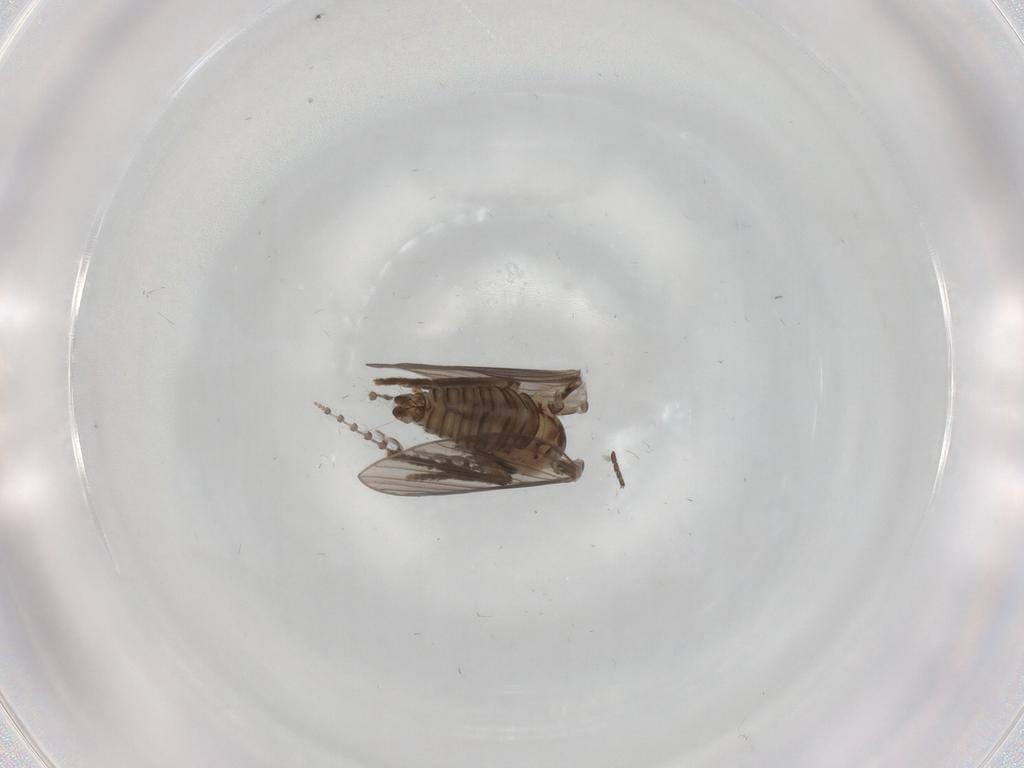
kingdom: Animalia
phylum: Arthropoda
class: Insecta
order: Diptera
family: Psychodidae
